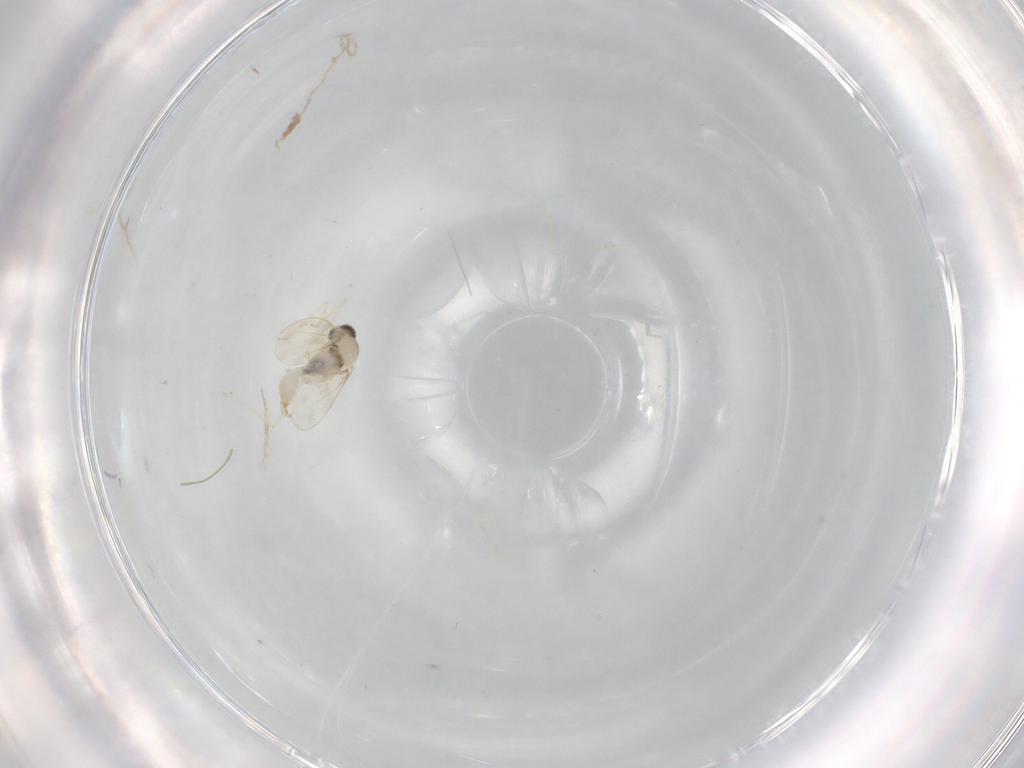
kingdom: Animalia
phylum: Arthropoda
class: Insecta
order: Diptera
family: Cecidomyiidae
